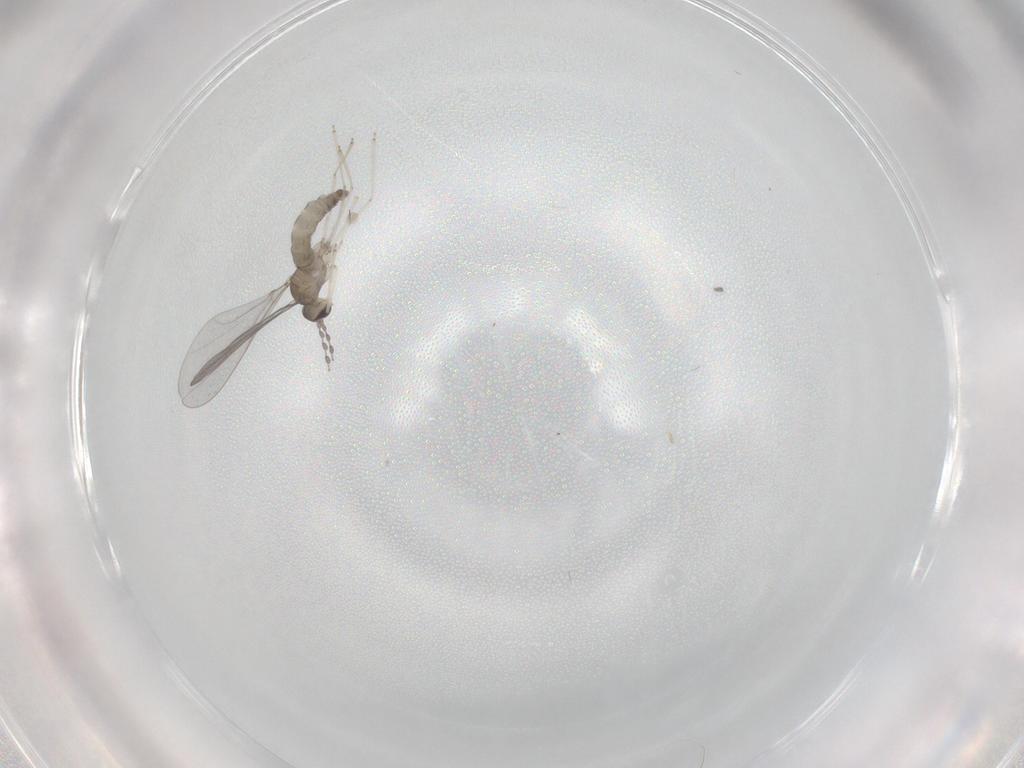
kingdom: Animalia
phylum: Arthropoda
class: Insecta
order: Diptera
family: Cecidomyiidae
